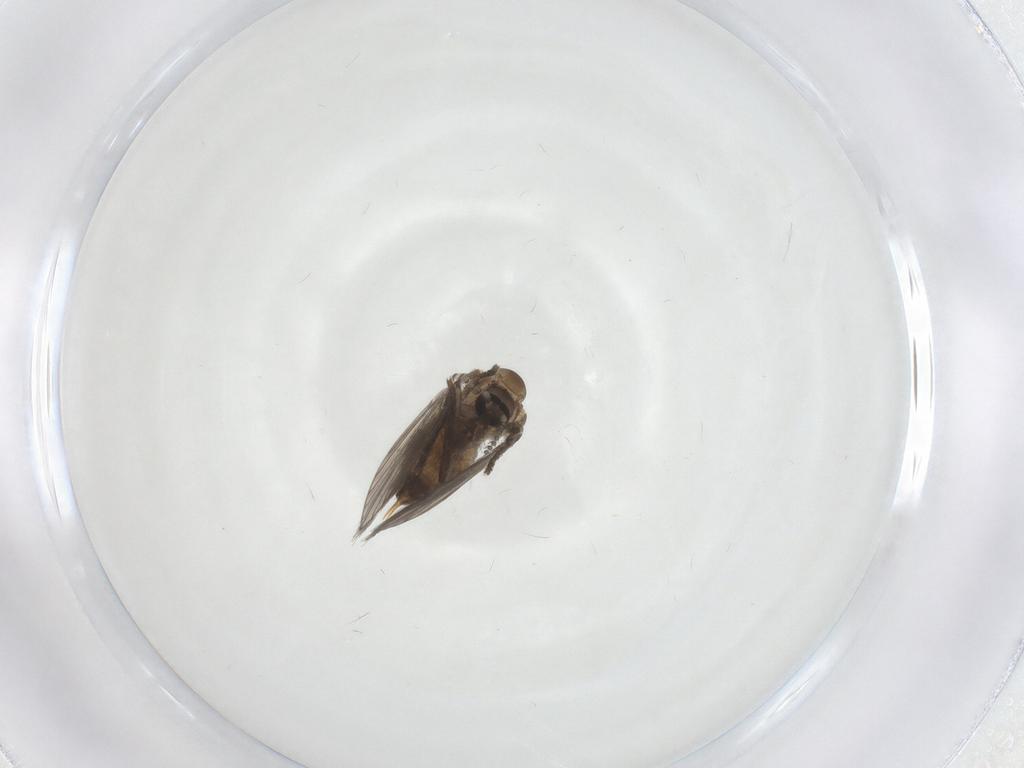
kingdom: Animalia
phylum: Arthropoda
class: Insecta
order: Diptera
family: Psychodidae
